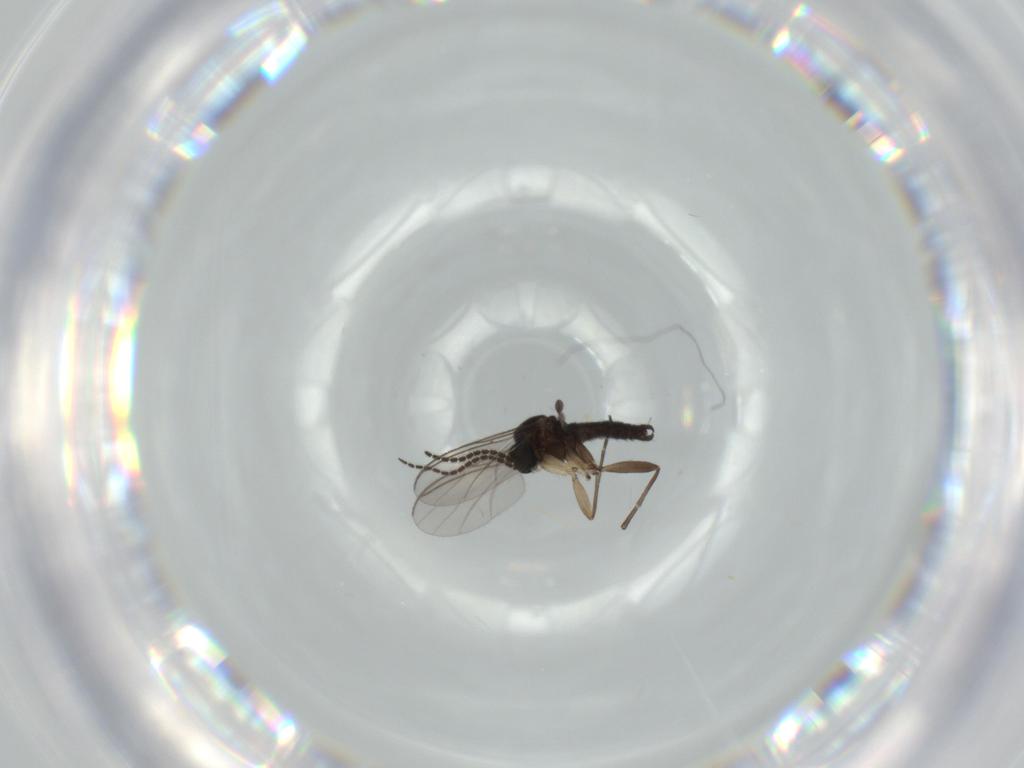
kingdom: Animalia
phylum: Arthropoda
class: Insecta
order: Diptera
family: Sciaridae
